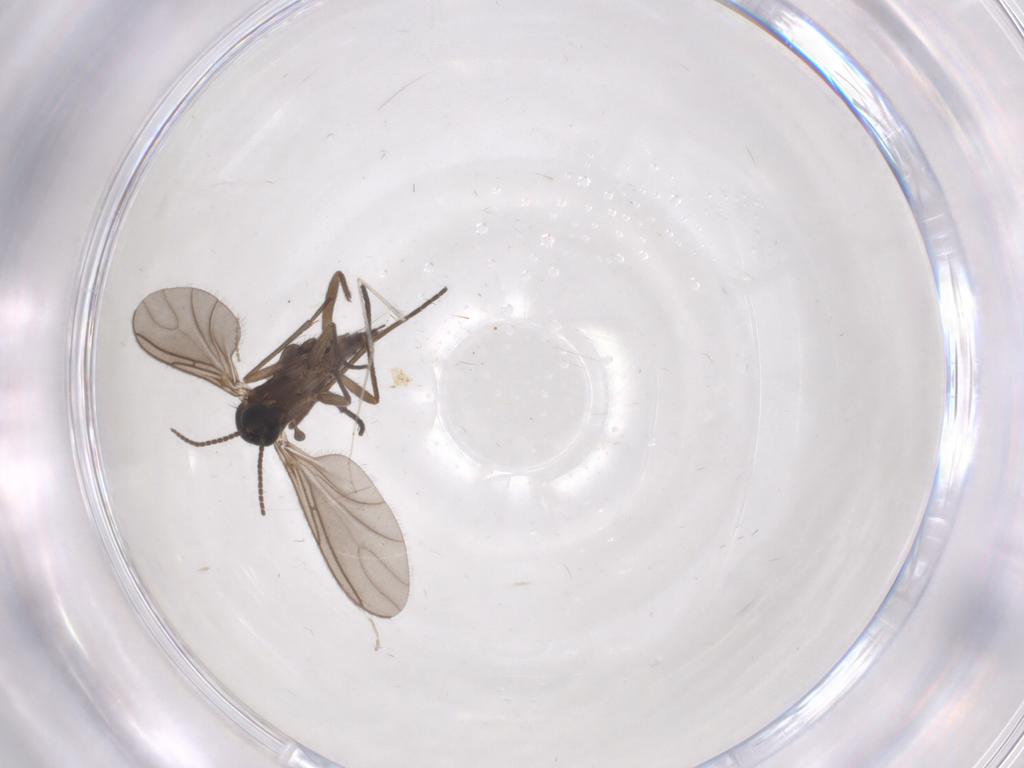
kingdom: Animalia
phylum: Arthropoda
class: Insecta
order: Diptera
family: Sciaridae
